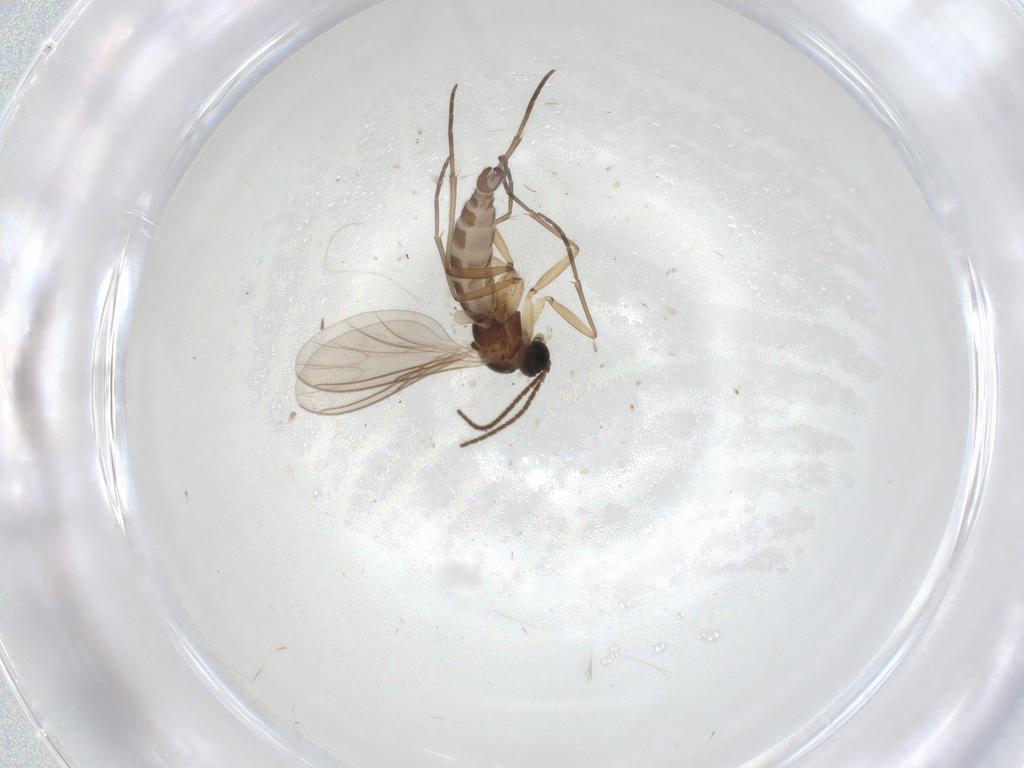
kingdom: Animalia
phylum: Arthropoda
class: Insecta
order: Diptera
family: Sciaridae
